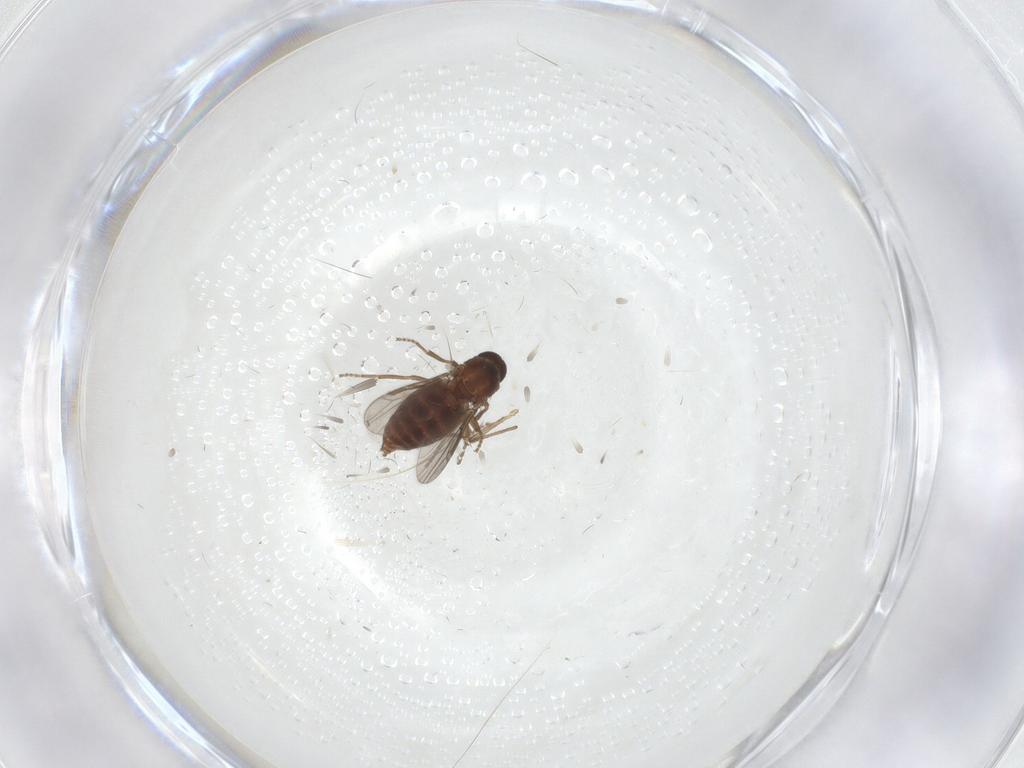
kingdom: Animalia
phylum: Arthropoda
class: Insecta
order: Diptera
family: Ceratopogonidae
